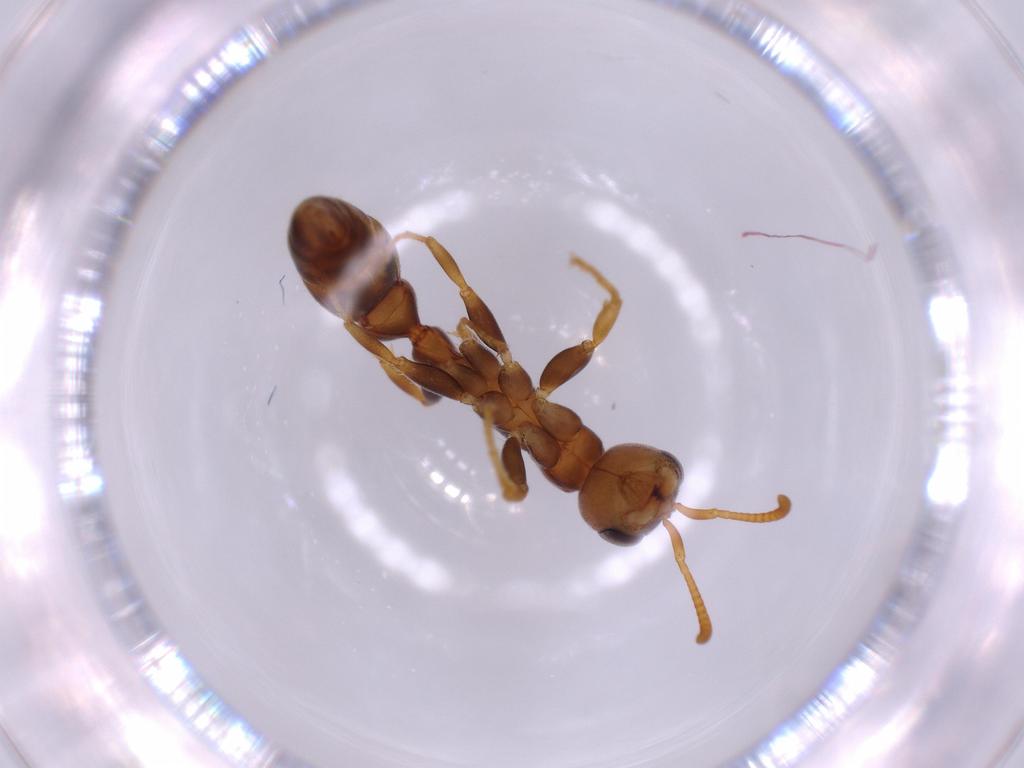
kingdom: Animalia
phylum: Arthropoda
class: Insecta
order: Hymenoptera
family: Formicidae
